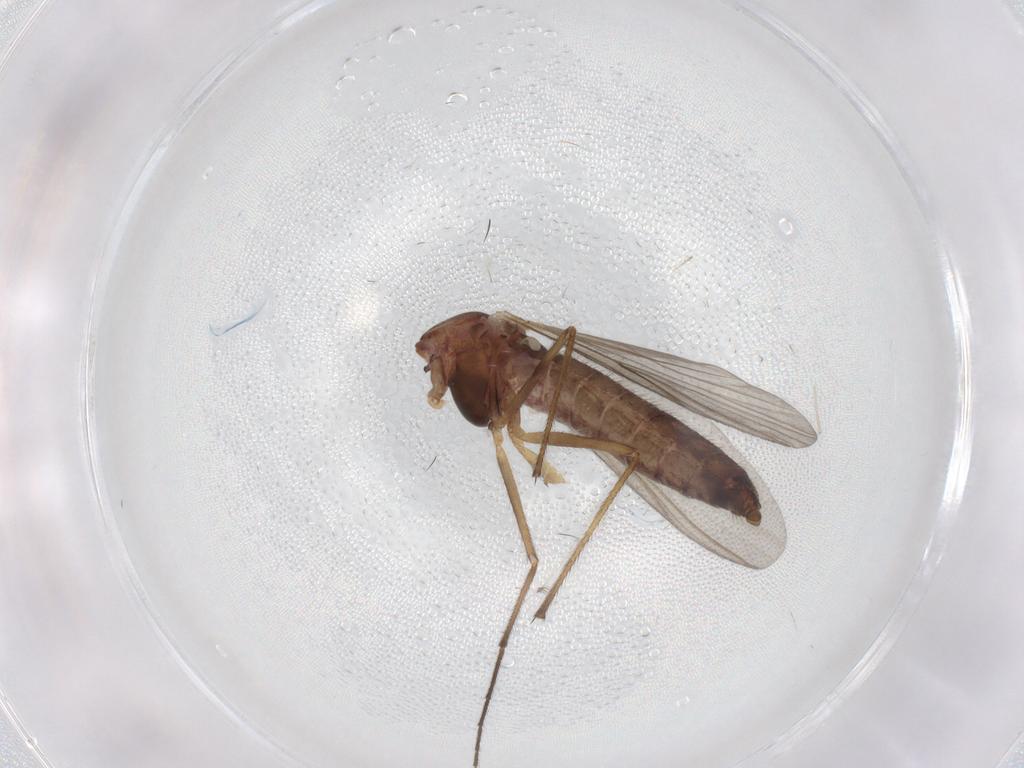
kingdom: Animalia
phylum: Arthropoda
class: Insecta
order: Diptera
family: Chironomidae
